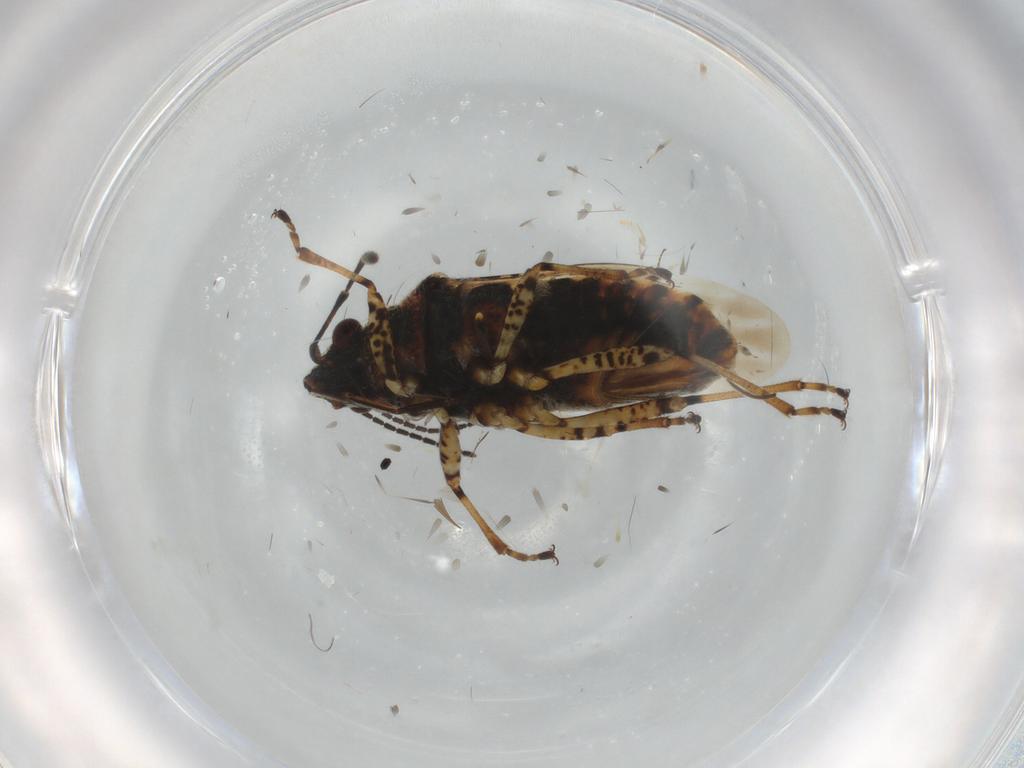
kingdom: Animalia
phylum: Arthropoda
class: Insecta
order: Hemiptera
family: Lygaeidae
